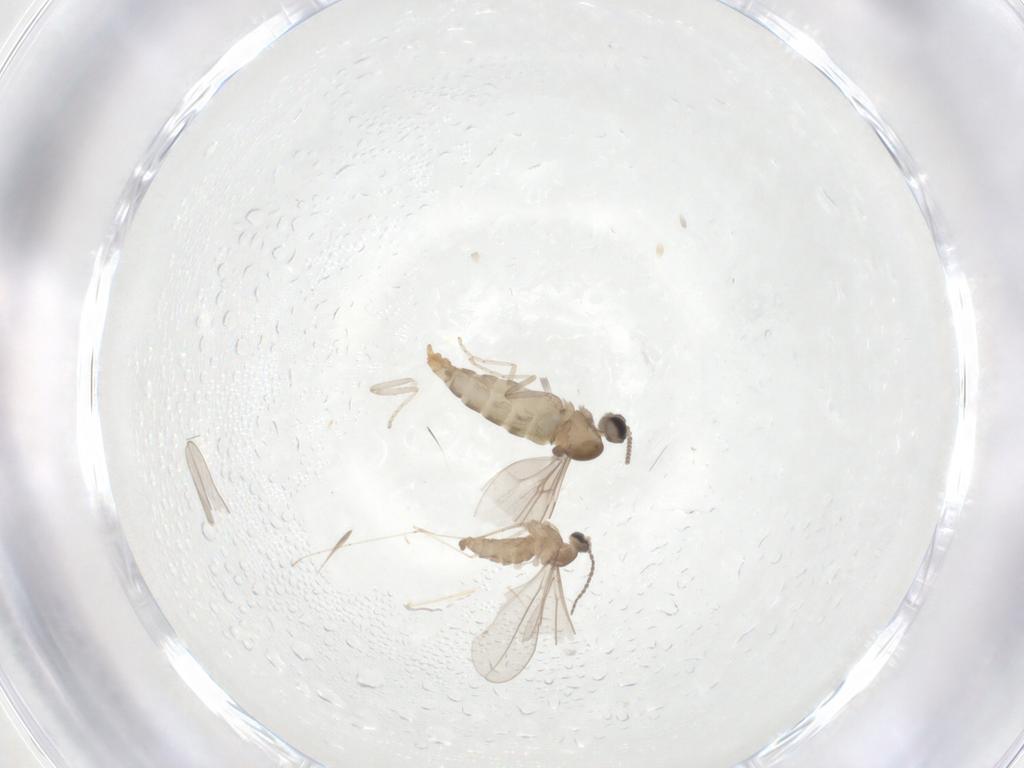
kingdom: Animalia
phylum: Arthropoda
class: Insecta
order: Diptera
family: Cecidomyiidae
